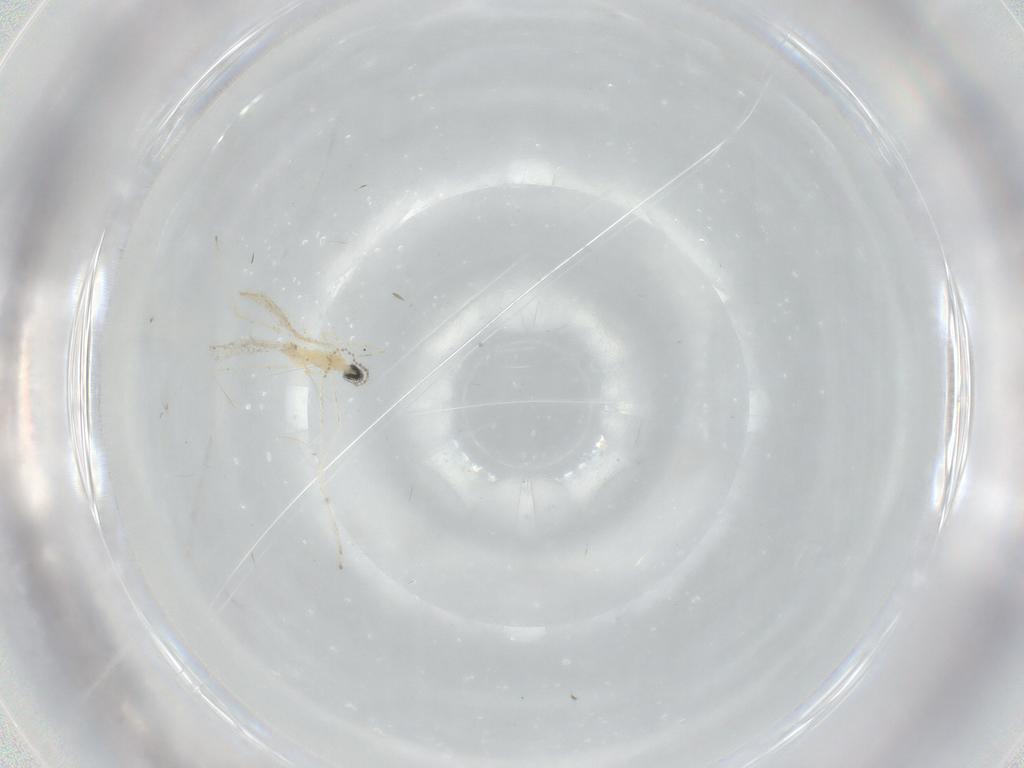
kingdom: Animalia
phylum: Arthropoda
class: Insecta
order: Diptera
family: Cecidomyiidae
